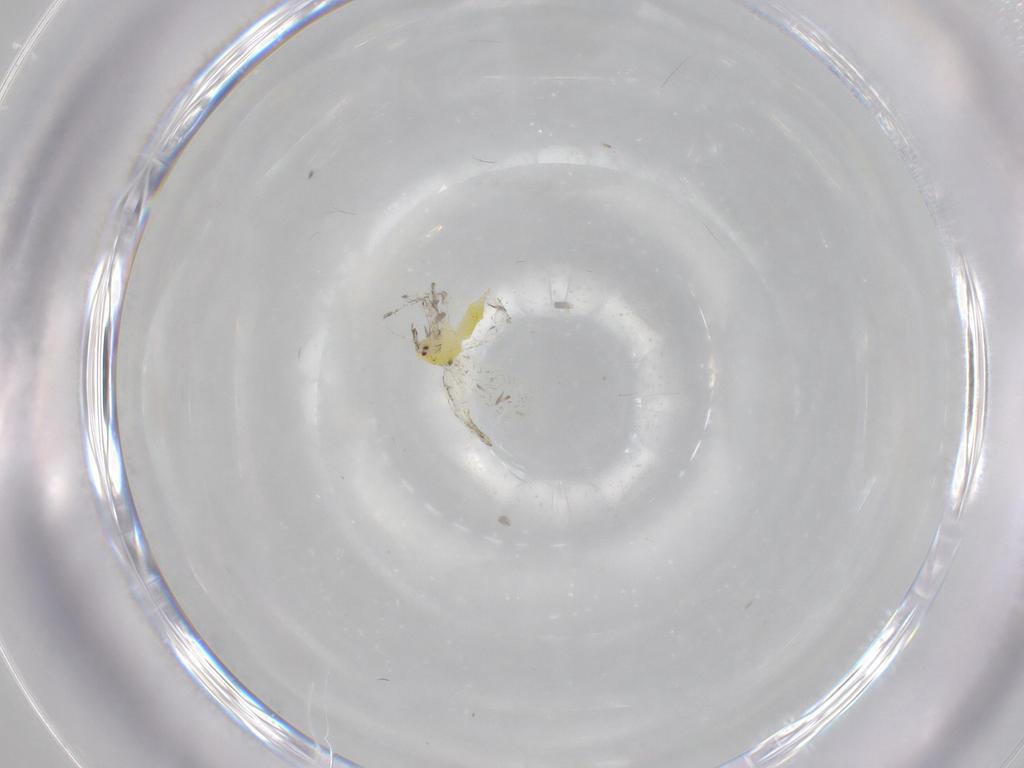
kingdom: Animalia
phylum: Arthropoda
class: Insecta
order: Hemiptera
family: Aleyrodidae
